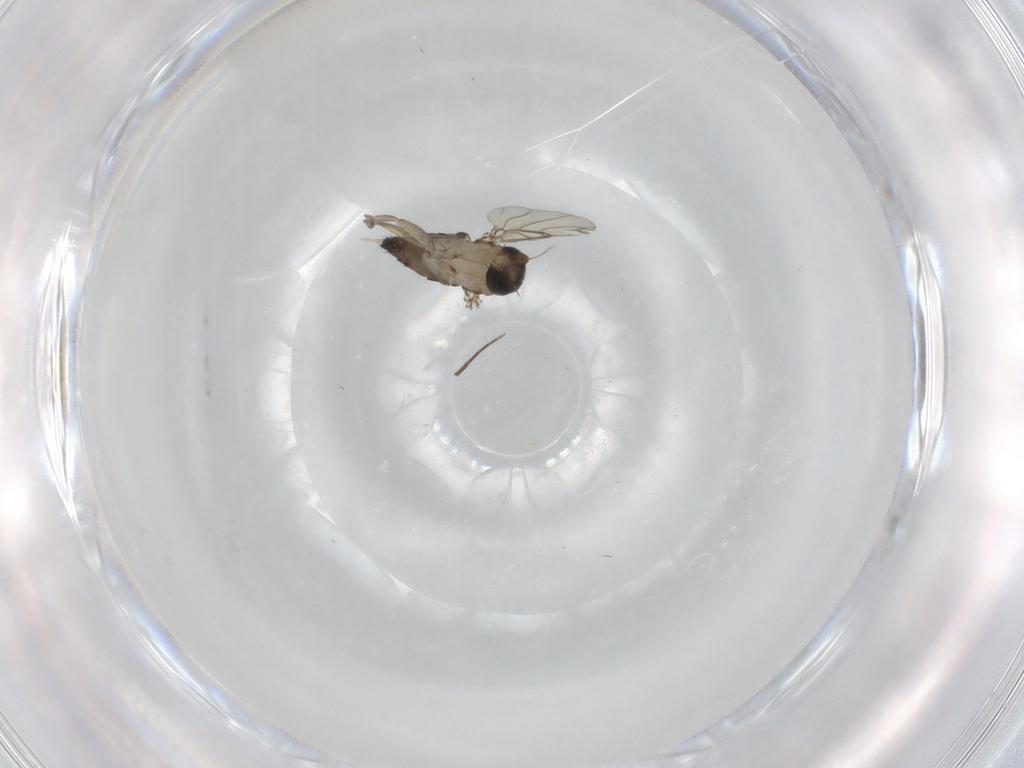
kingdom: Animalia
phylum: Arthropoda
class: Insecta
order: Diptera
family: Phoridae
